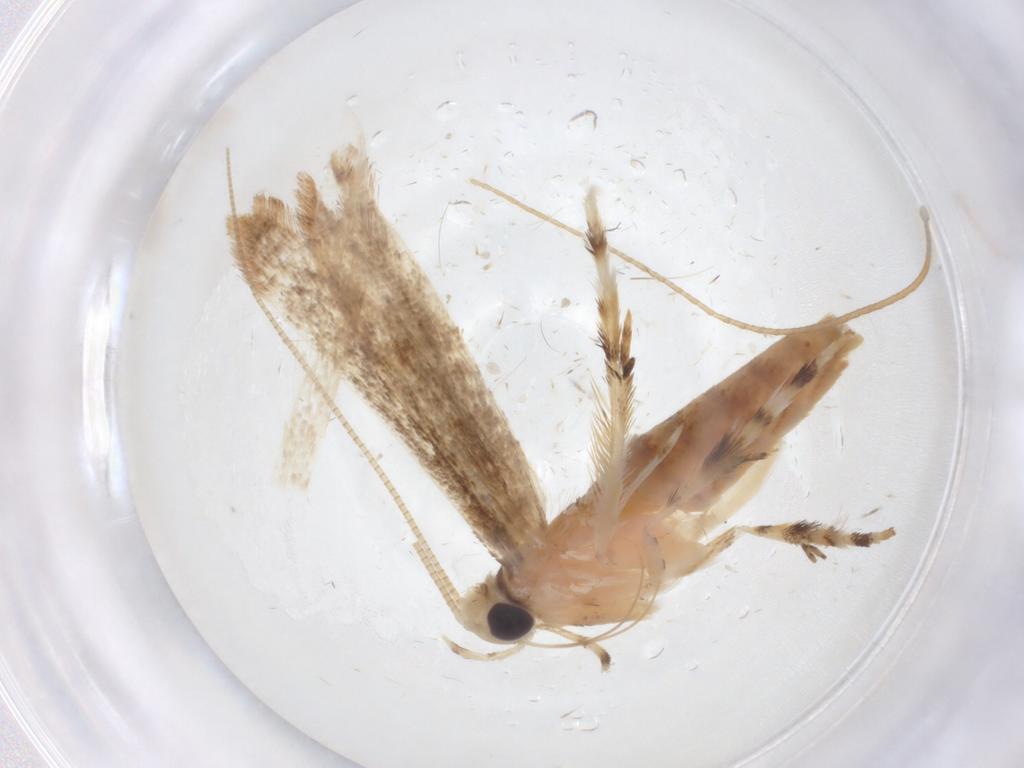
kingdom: Animalia
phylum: Arthropoda
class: Insecta
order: Lepidoptera
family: Gracillariidae
